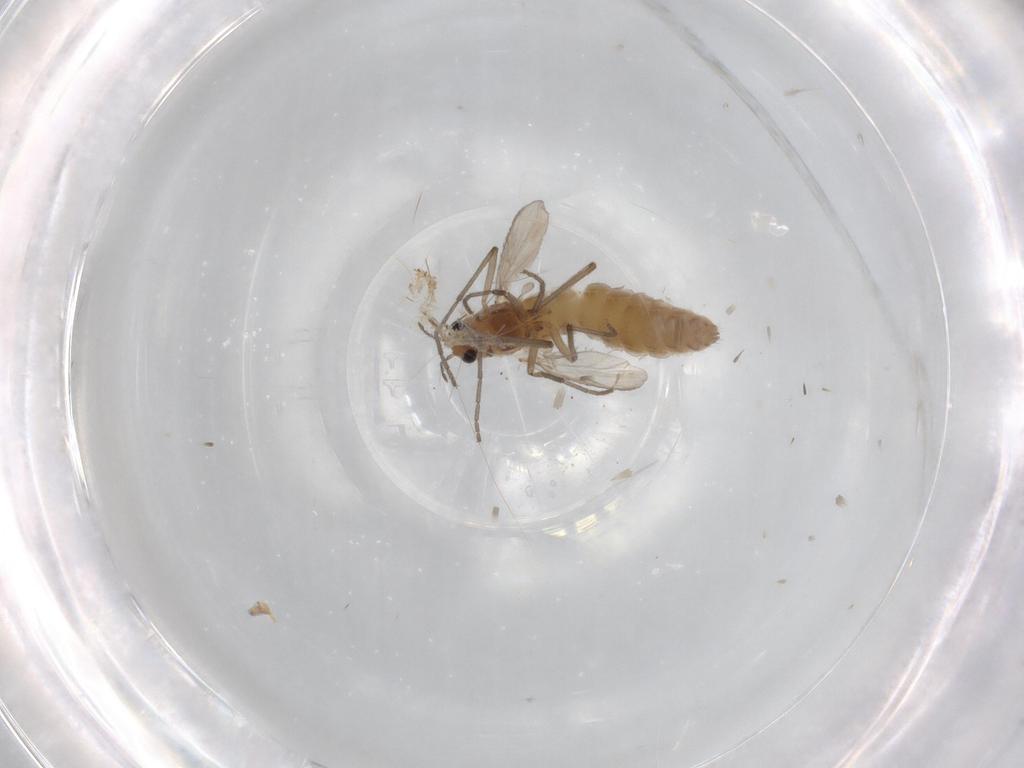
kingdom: Animalia
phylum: Arthropoda
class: Insecta
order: Diptera
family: Chironomidae
